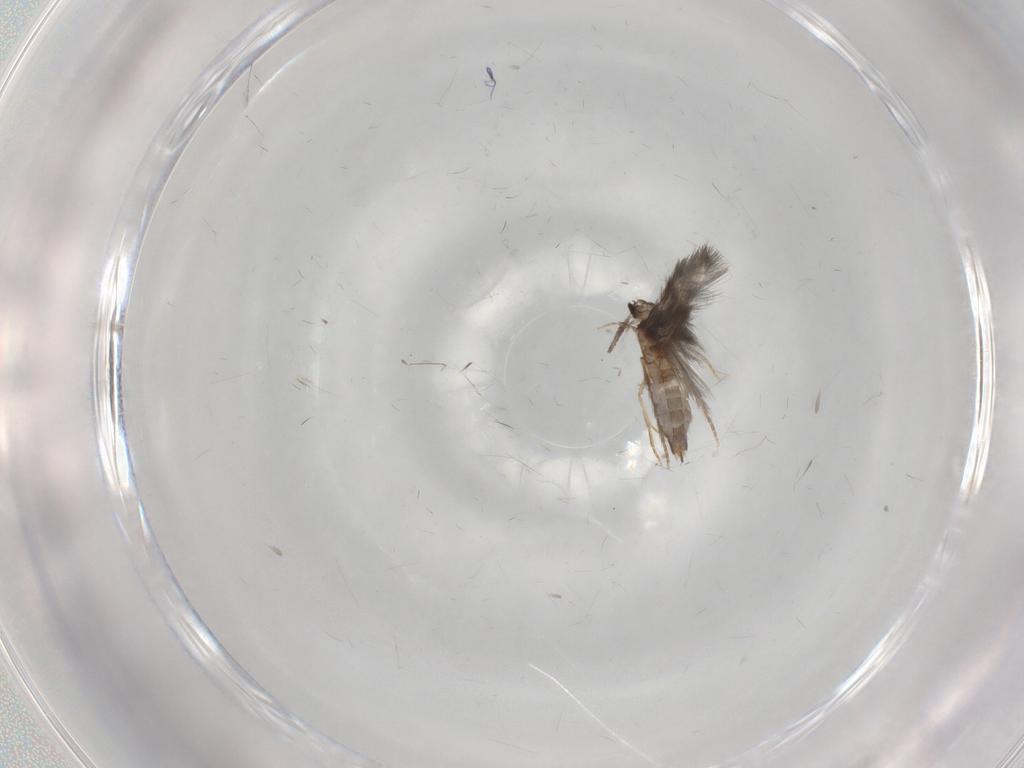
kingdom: Animalia
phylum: Arthropoda
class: Insecta
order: Trichoptera
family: Hydroptilidae
